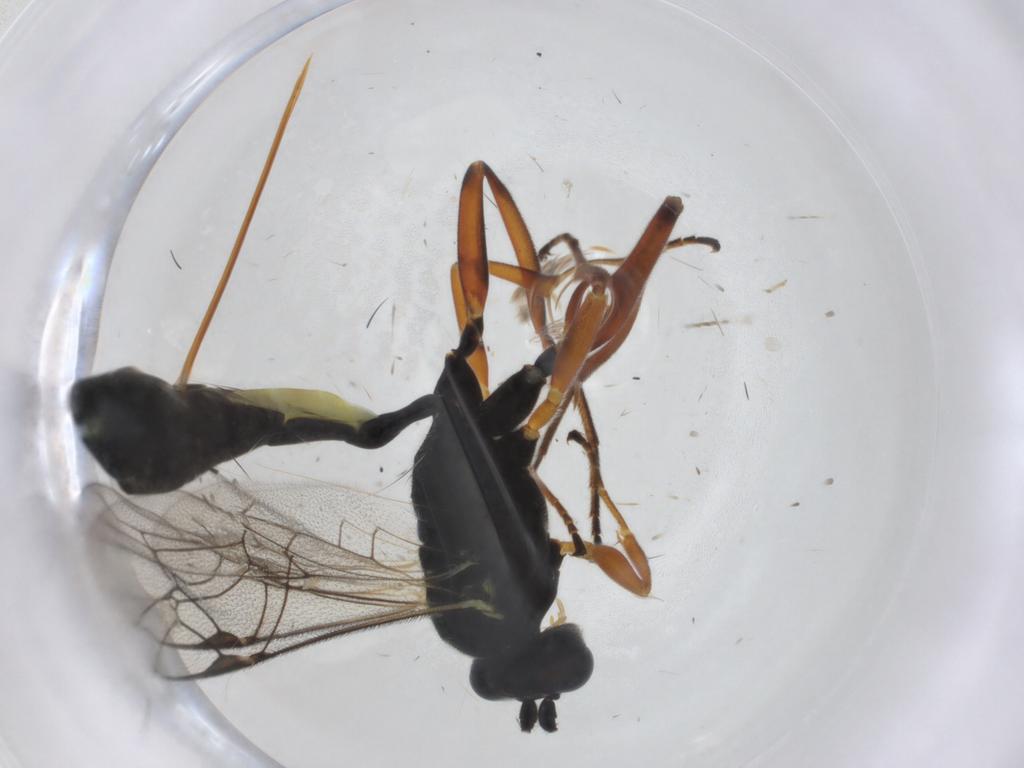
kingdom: Animalia
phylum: Arthropoda
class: Insecta
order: Hymenoptera
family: Ichneumonidae
